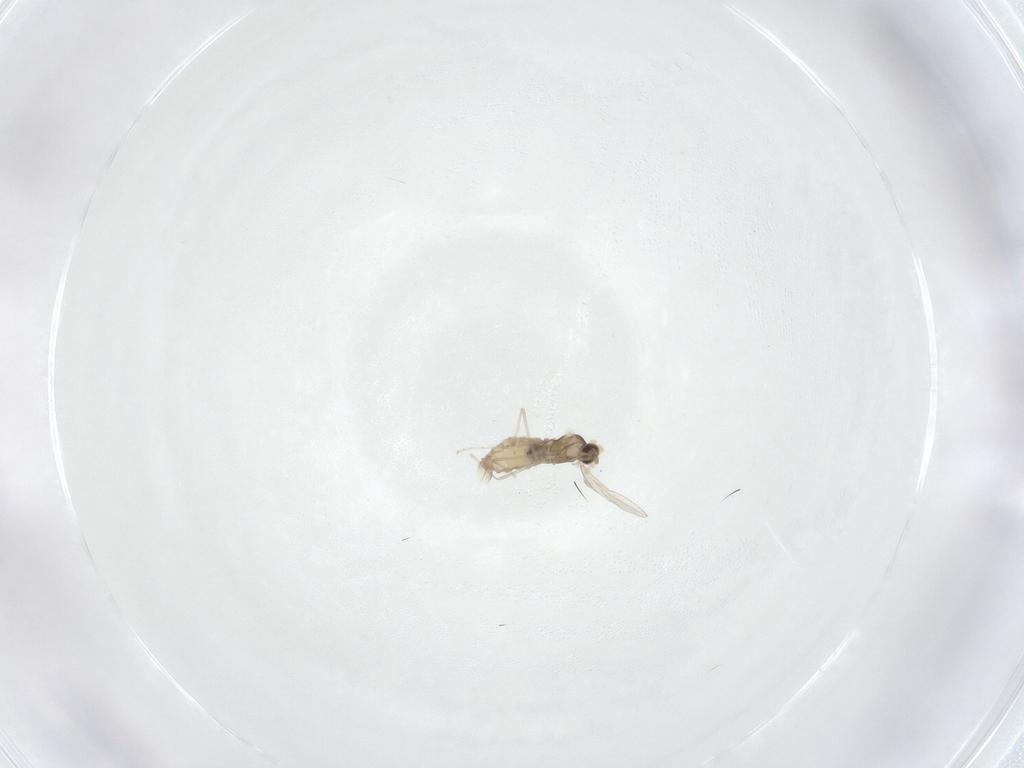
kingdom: Animalia
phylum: Arthropoda
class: Insecta
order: Diptera
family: Cecidomyiidae
